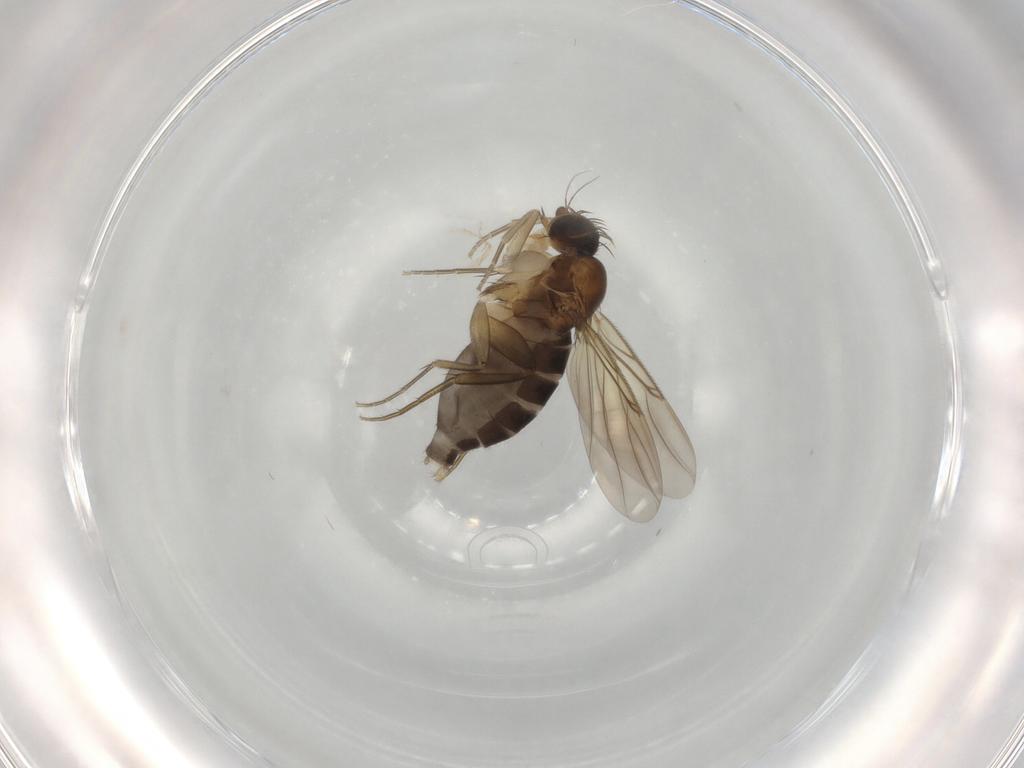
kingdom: Animalia
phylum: Arthropoda
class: Insecta
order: Diptera
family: Phoridae
